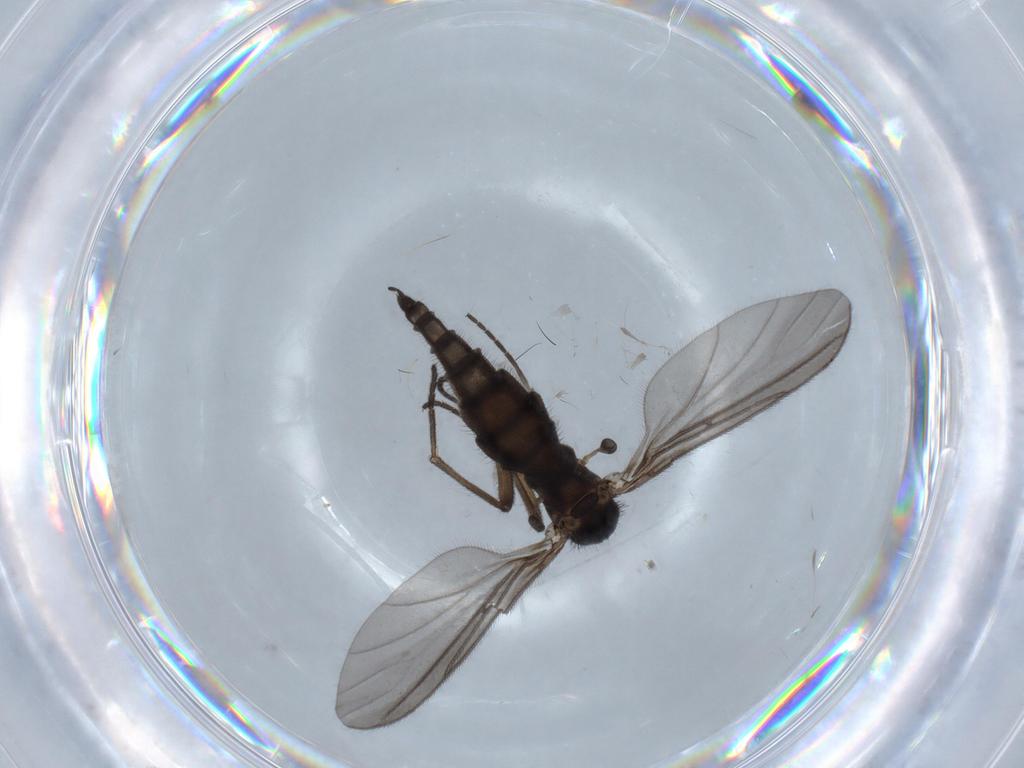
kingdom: Animalia
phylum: Arthropoda
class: Insecta
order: Diptera
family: Sciaridae
